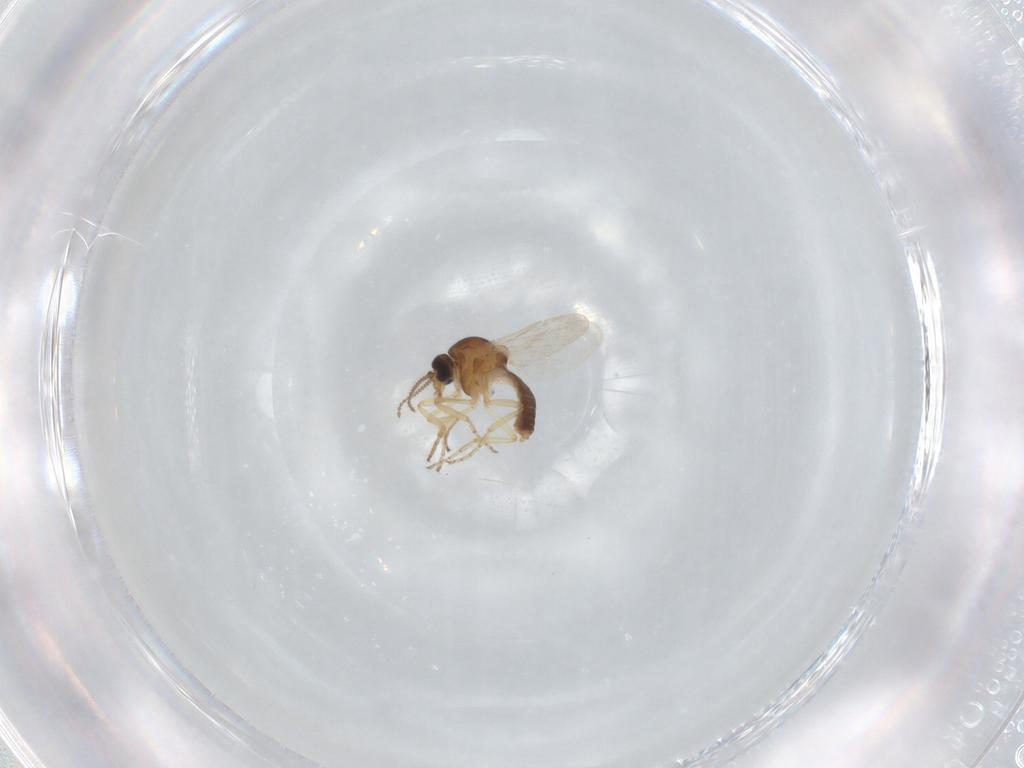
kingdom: Animalia
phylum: Arthropoda
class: Insecta
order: Diptera
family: Ceratopogonidae
